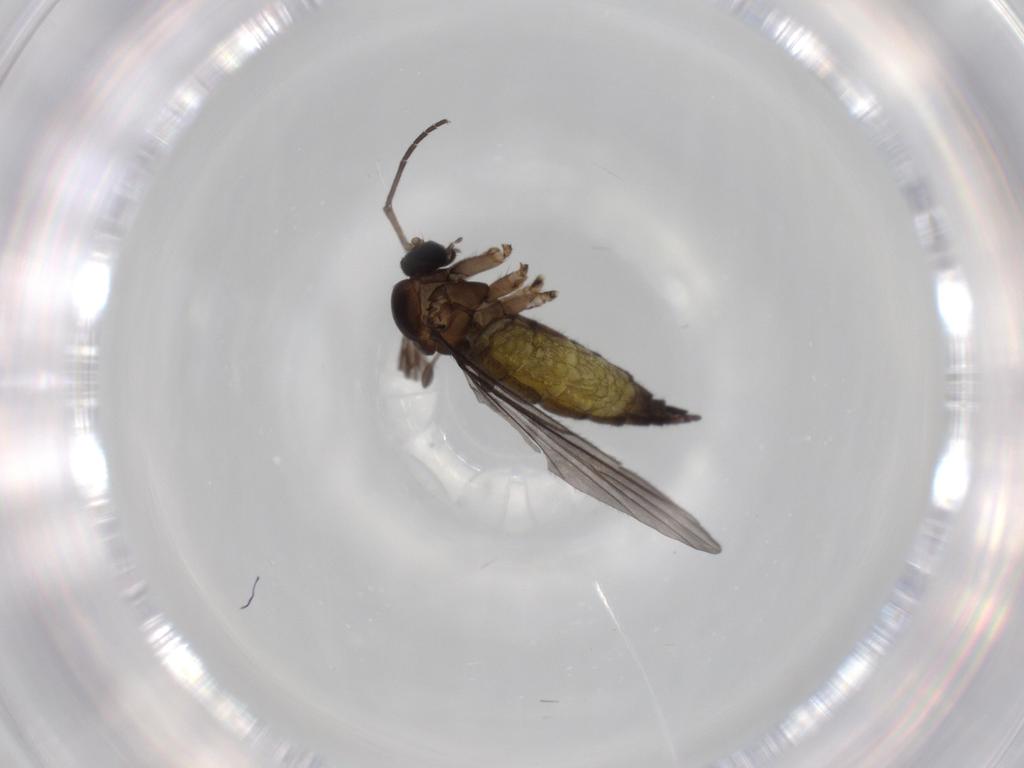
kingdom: Animalia
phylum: Arthropoda
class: Insecta
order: Diptera
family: Sciaridae
